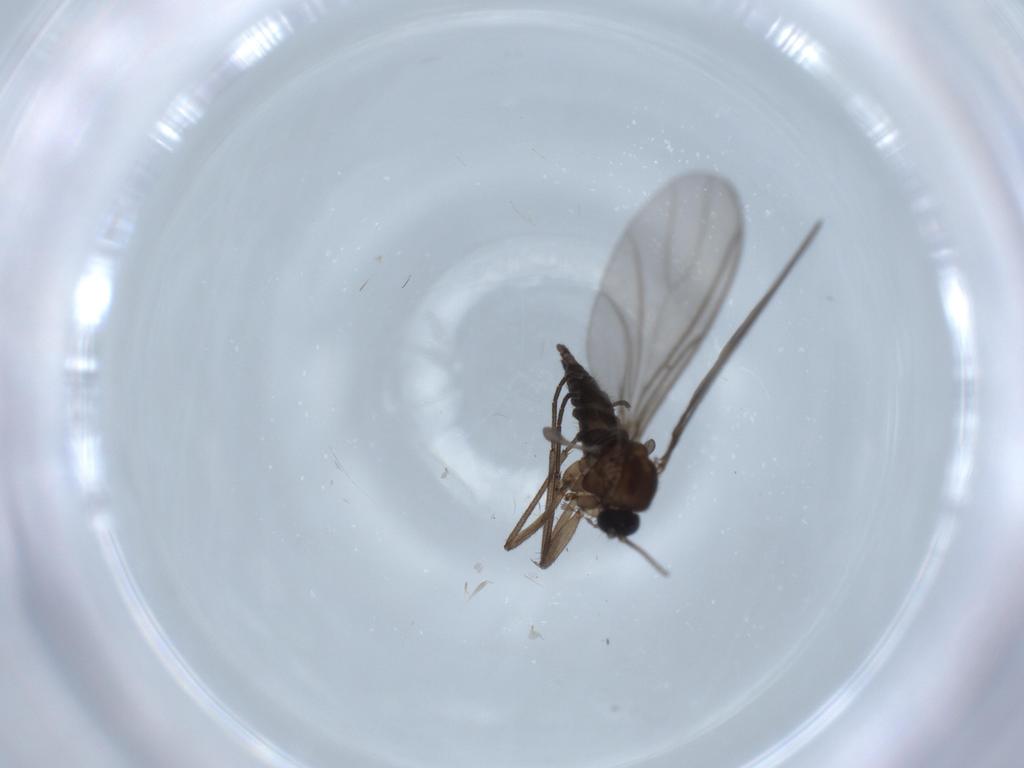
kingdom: Animalia
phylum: Arthropoda
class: Insecta
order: Diptera
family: Sciaridae
